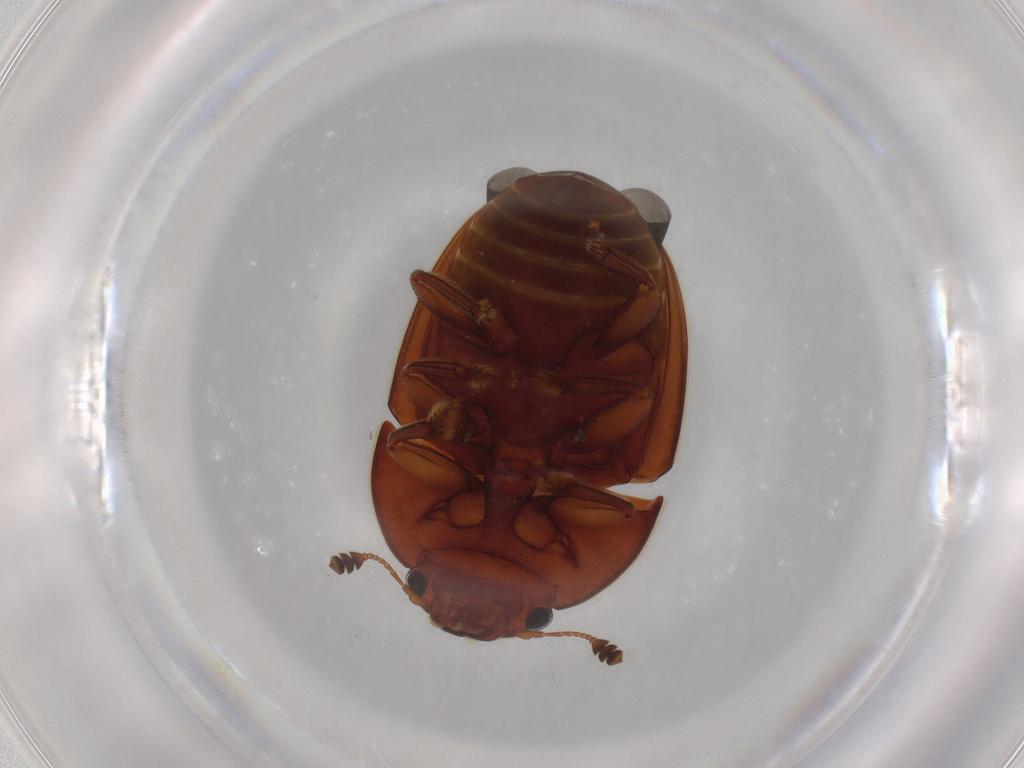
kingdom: Animalia
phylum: Arthropoda
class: Insecta
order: Coleoptera
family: Nitidulidae
